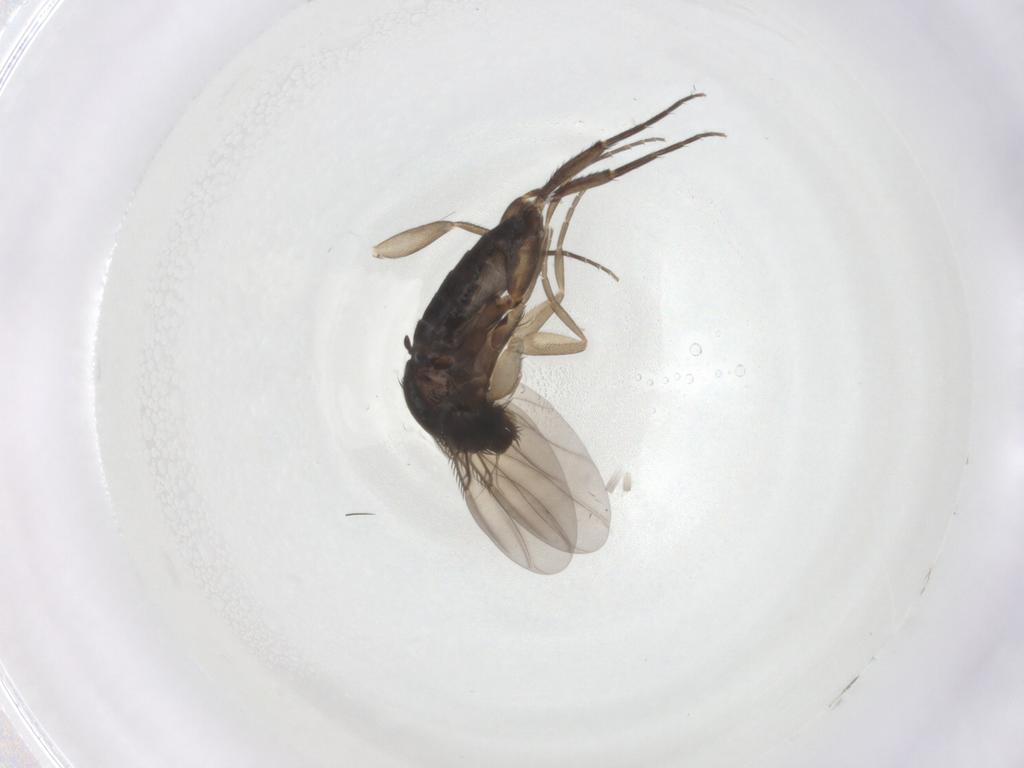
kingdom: Animalia
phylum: Arthropoda
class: Insecta
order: Diptera
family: Phoridae
